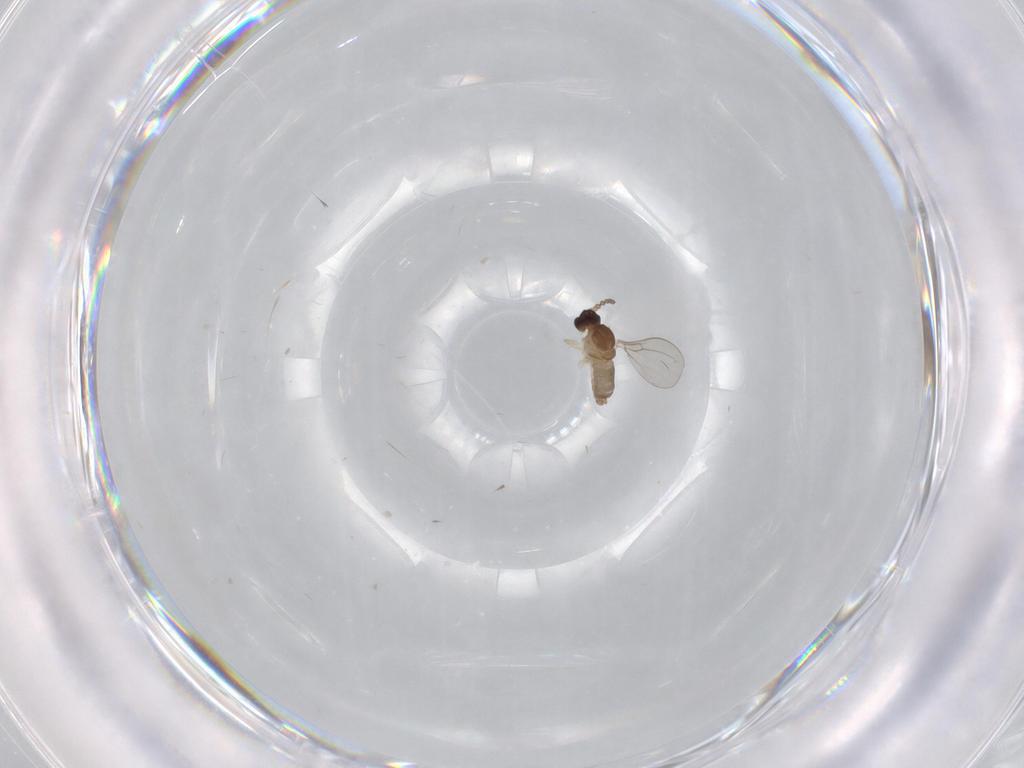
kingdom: Animalia
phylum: Arthropoda
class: Insecta
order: Diptera
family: Cecidomyiidae
